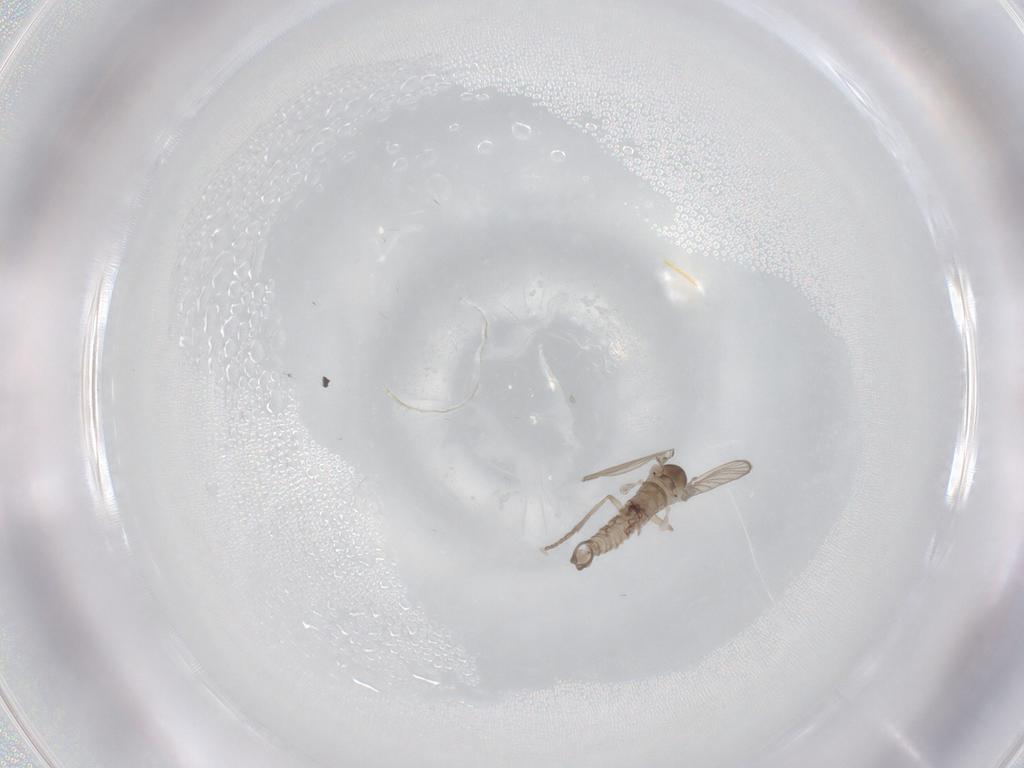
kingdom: Animalia
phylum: Arthropoda
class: Insecta
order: Diptera
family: Psychodidae
